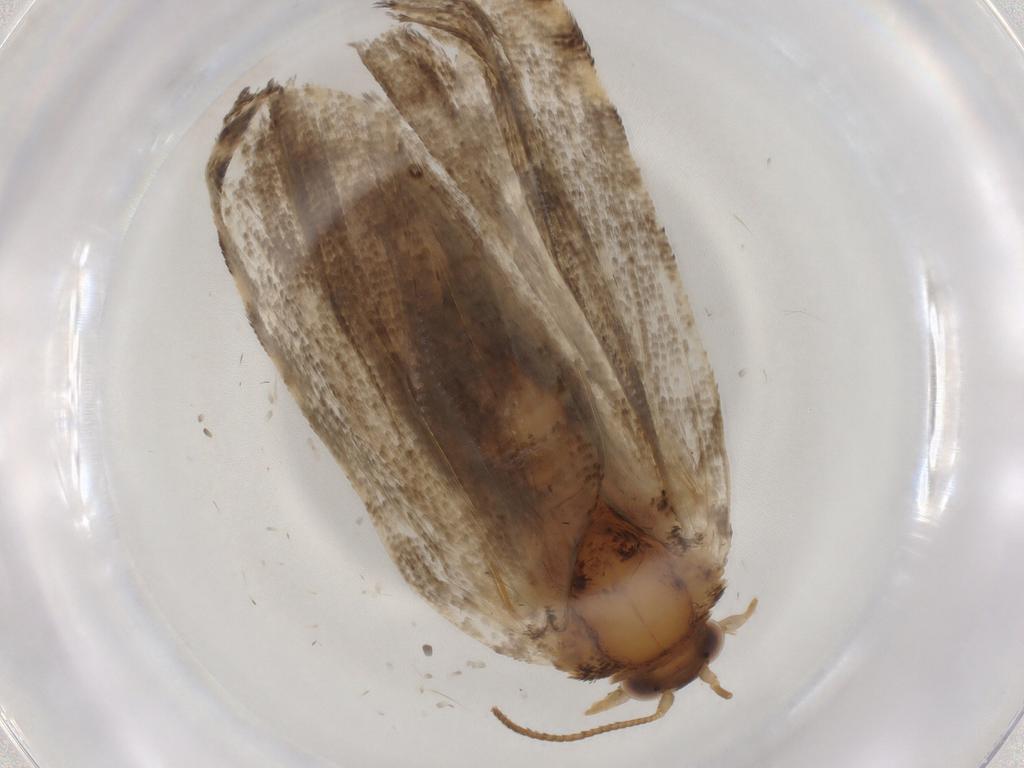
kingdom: Animalia
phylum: Arthropoda
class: Insecta
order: Lepidoptera
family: Tortricidae
